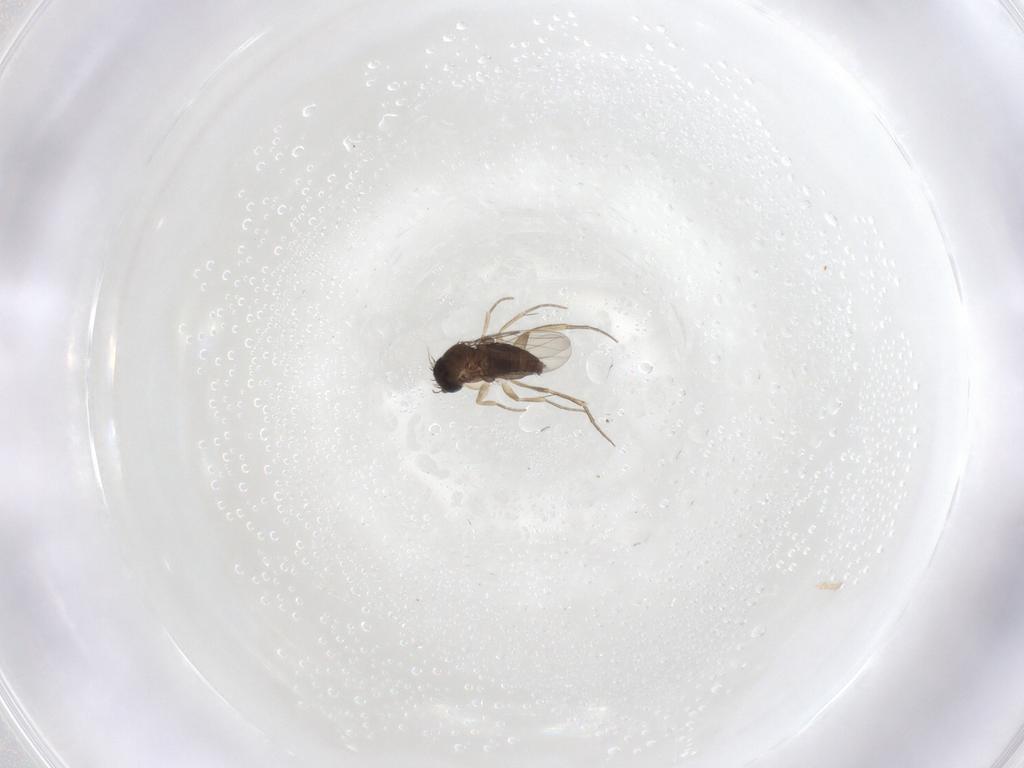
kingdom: Animalia
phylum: Arthropoda
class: Insecta
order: Diptera
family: Phoridae
